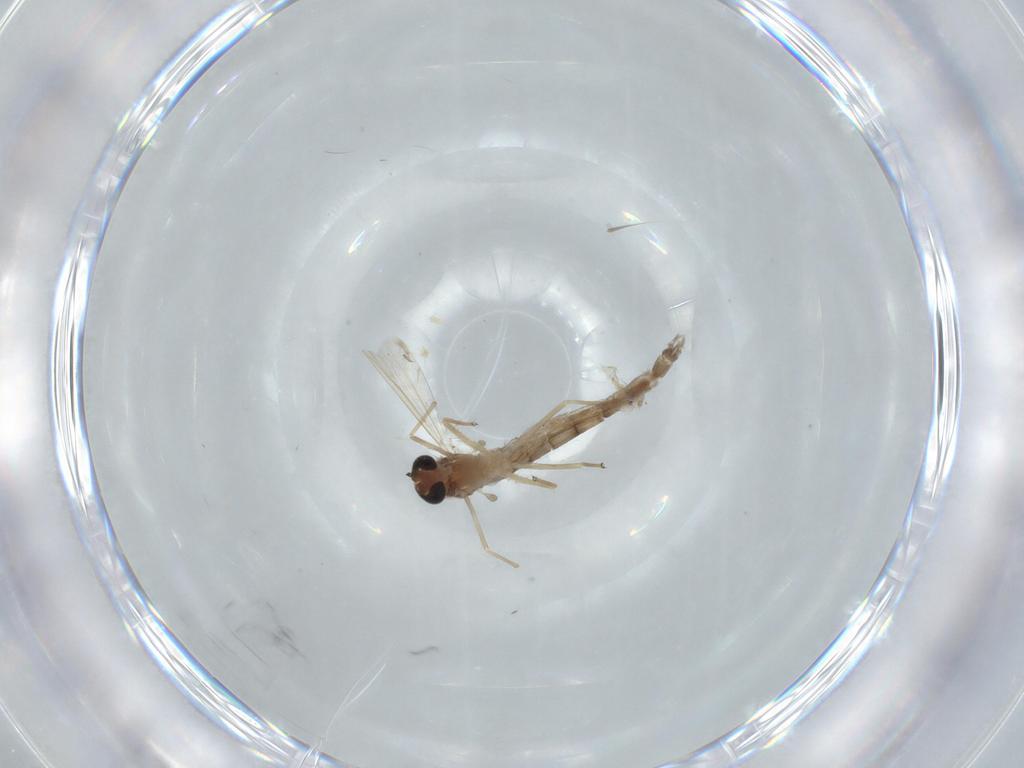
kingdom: Animalia
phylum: Arthropoda
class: Insecta
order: Diptera
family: Chironomidae
